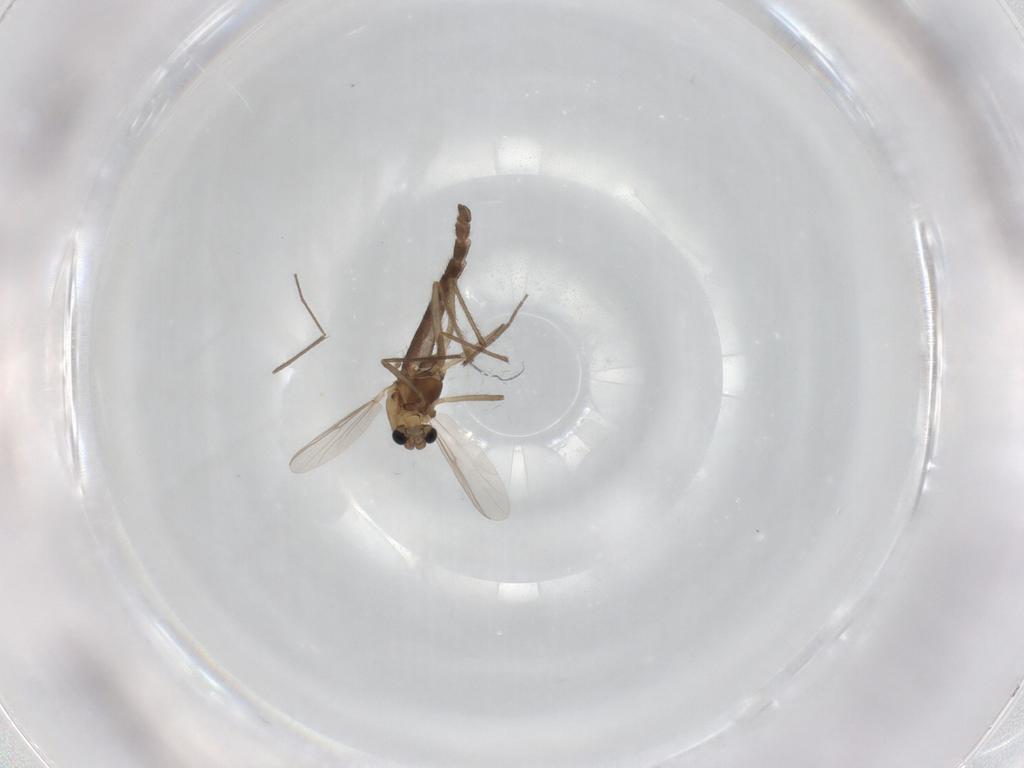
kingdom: Animalia
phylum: Arthropoda
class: Insecta
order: Diptera
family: Chironomidae
